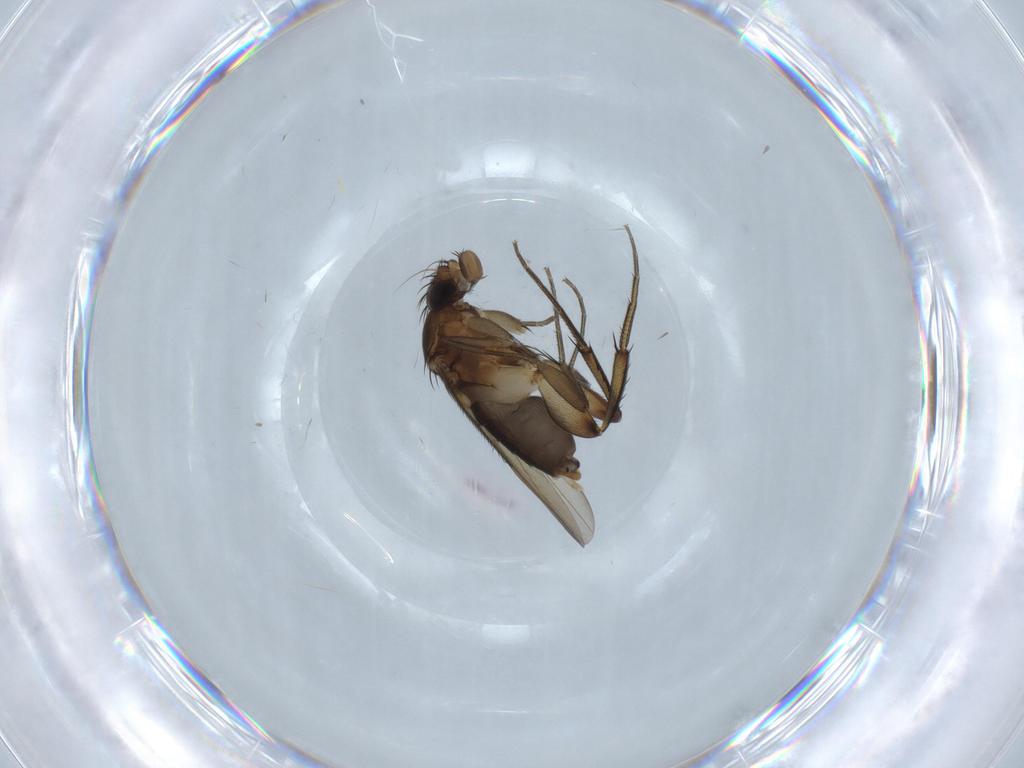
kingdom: Animalia
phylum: Arthropoda
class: Insecta
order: Diptera
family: Phoridae
